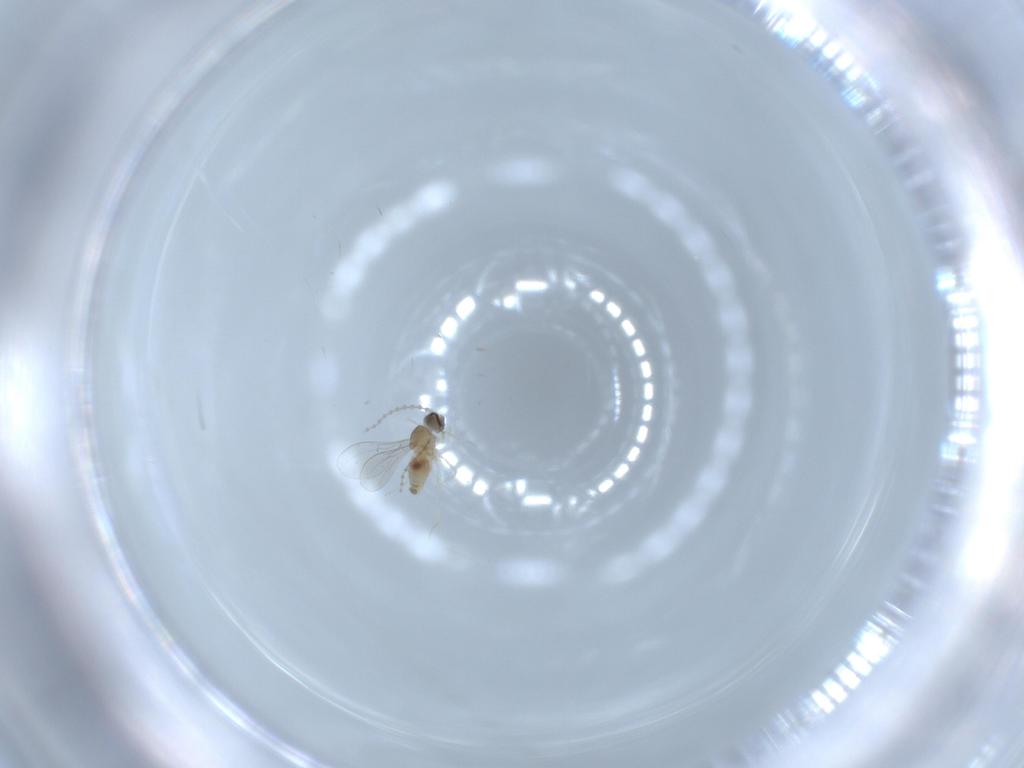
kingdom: Animalia
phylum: Arthropoda
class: Insecta
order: Diptera
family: Cecidomyiidae
